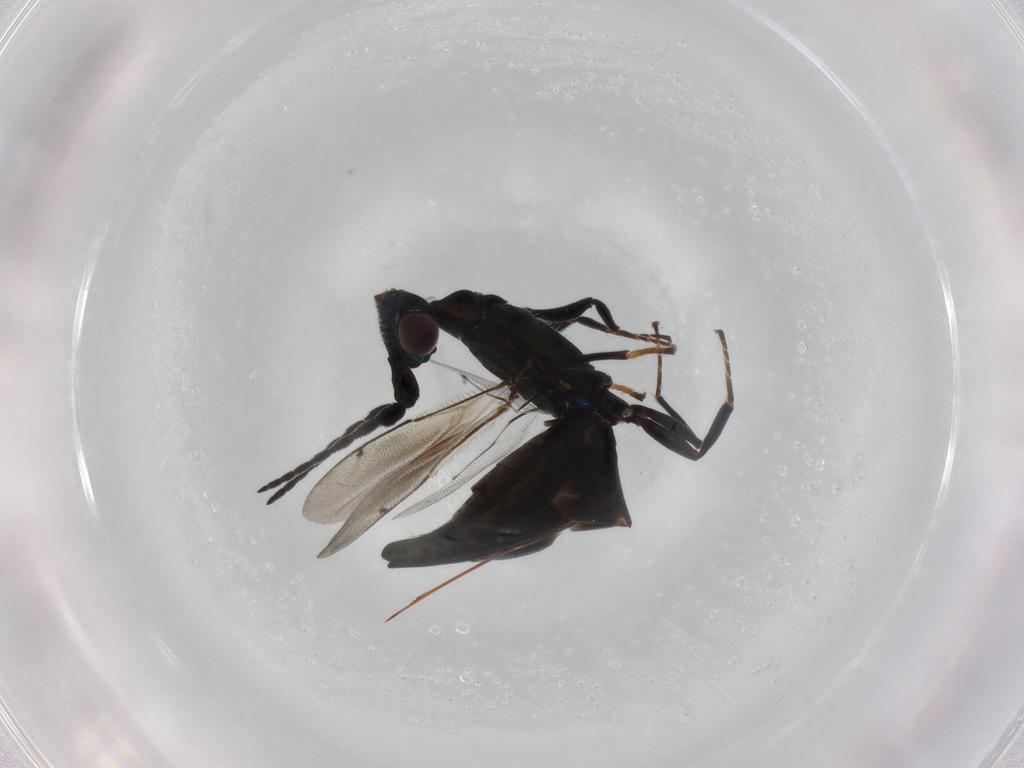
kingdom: Animalia
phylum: Arthropoda
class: Insecta
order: Hymenoptera
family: Eupelmidae
